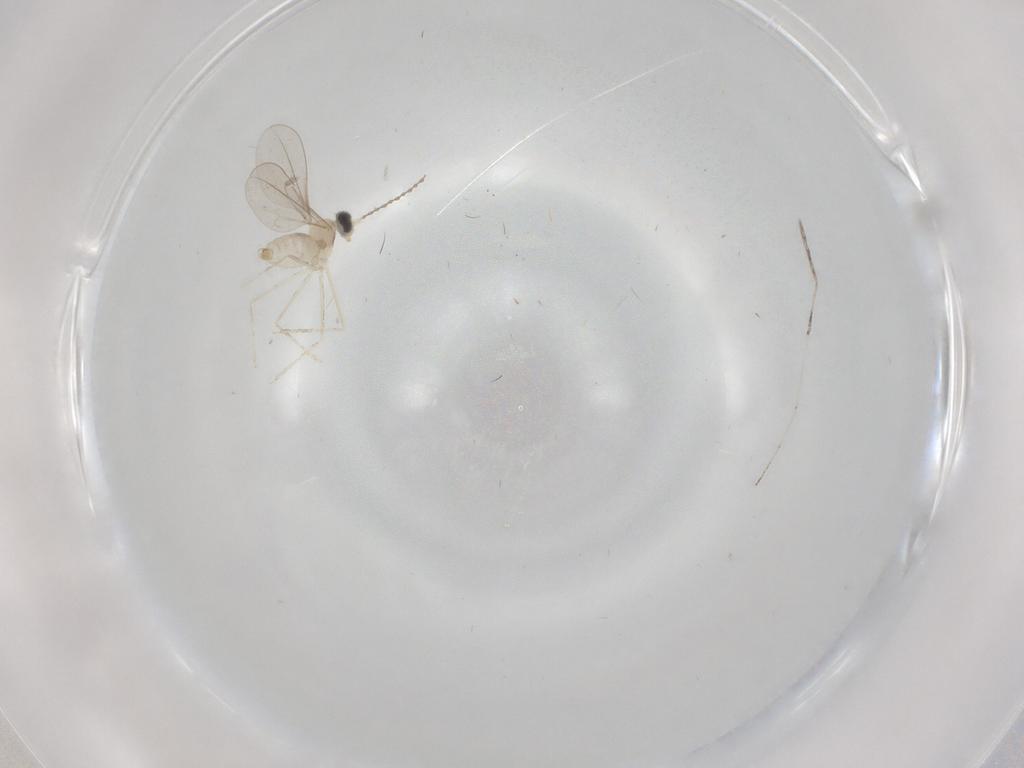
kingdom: Animalia
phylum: Arthropoda
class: Insecta
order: Diptera
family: Cecidomyiidae
